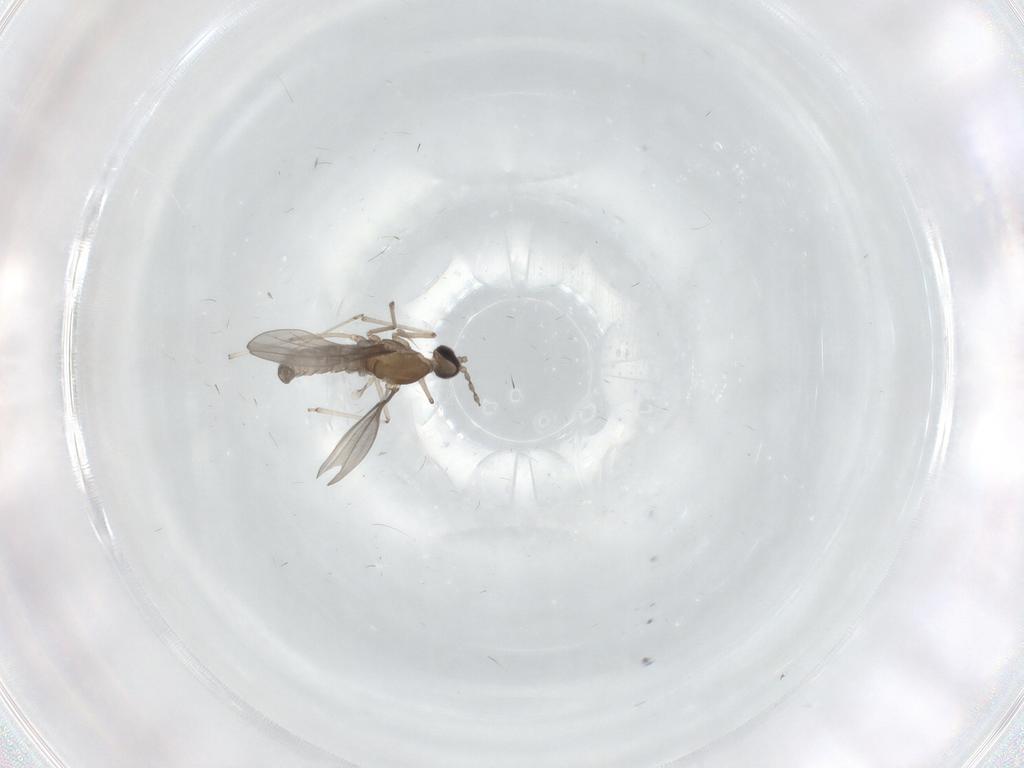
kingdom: Animalia
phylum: Arthropoda
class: Insecta
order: Diptera
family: Cecidomyiidae
